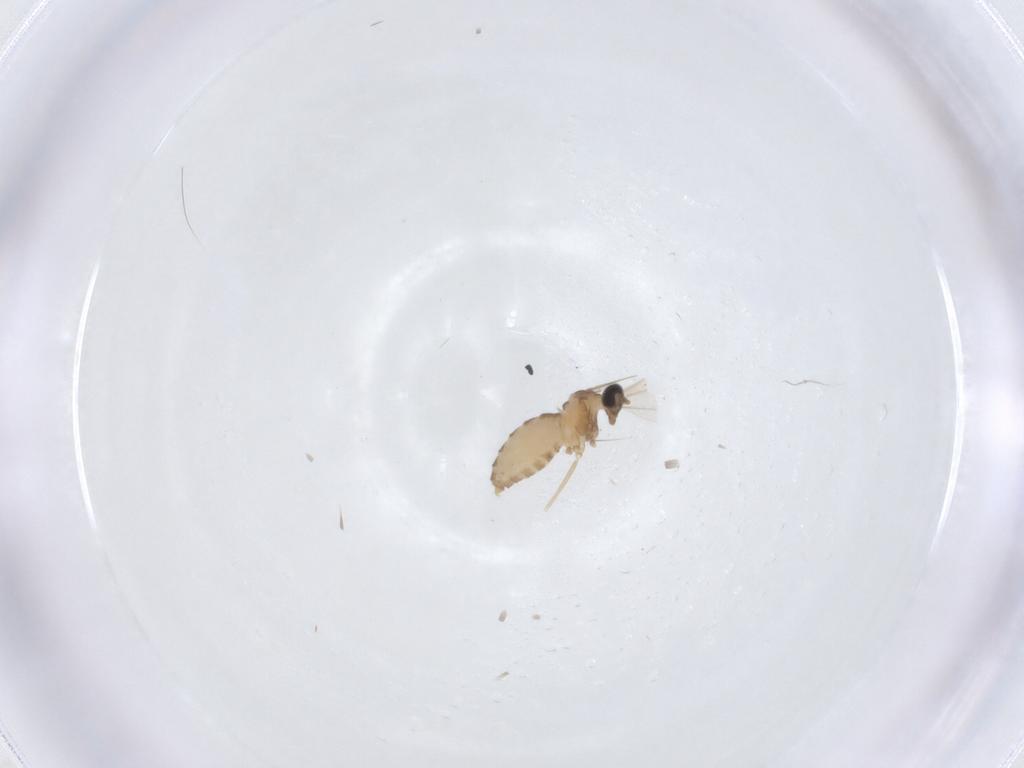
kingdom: Animalia
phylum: Arthropoda
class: Insecta
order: Diptera
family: Cecidomyiidae
